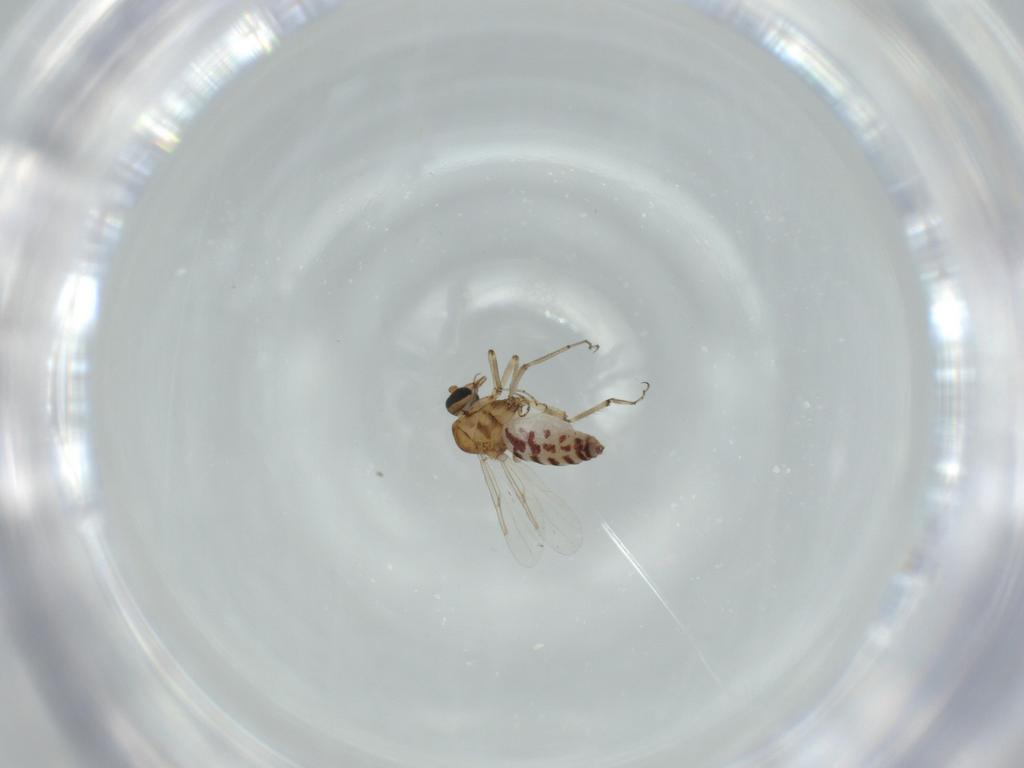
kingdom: Animalia
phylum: Arthropoda
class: Insecta
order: Diptera
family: Ceratopogonidae
